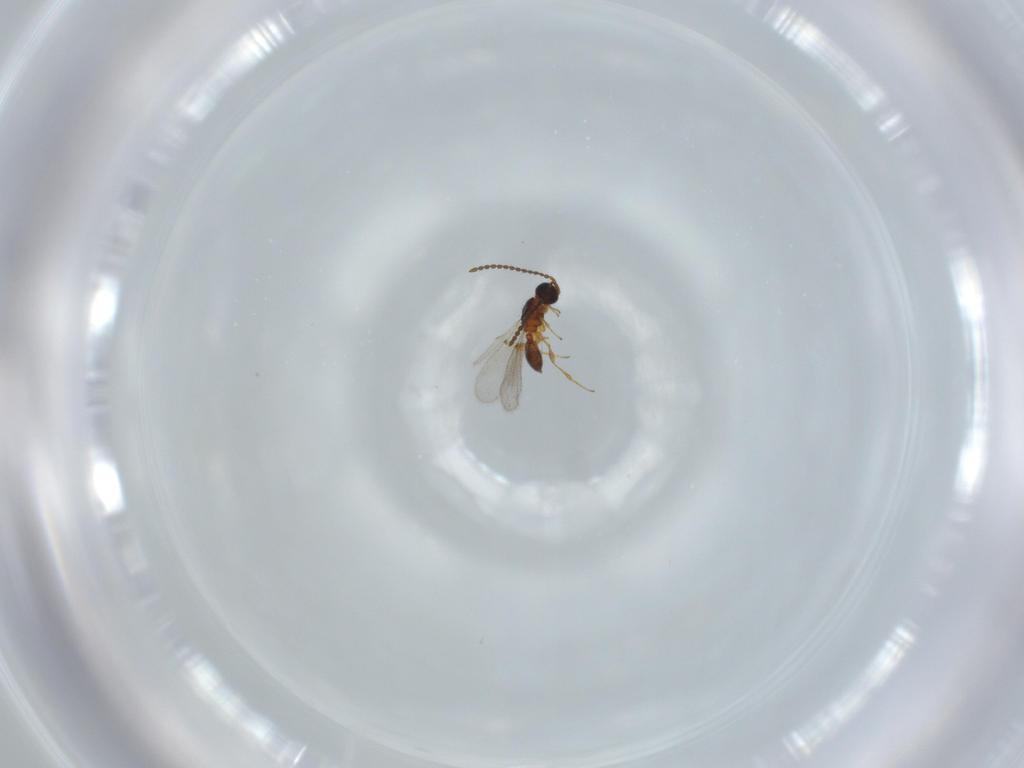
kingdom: Animalia
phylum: Arthropoda
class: Insecta
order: Hymenoptera
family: Diapriidae
